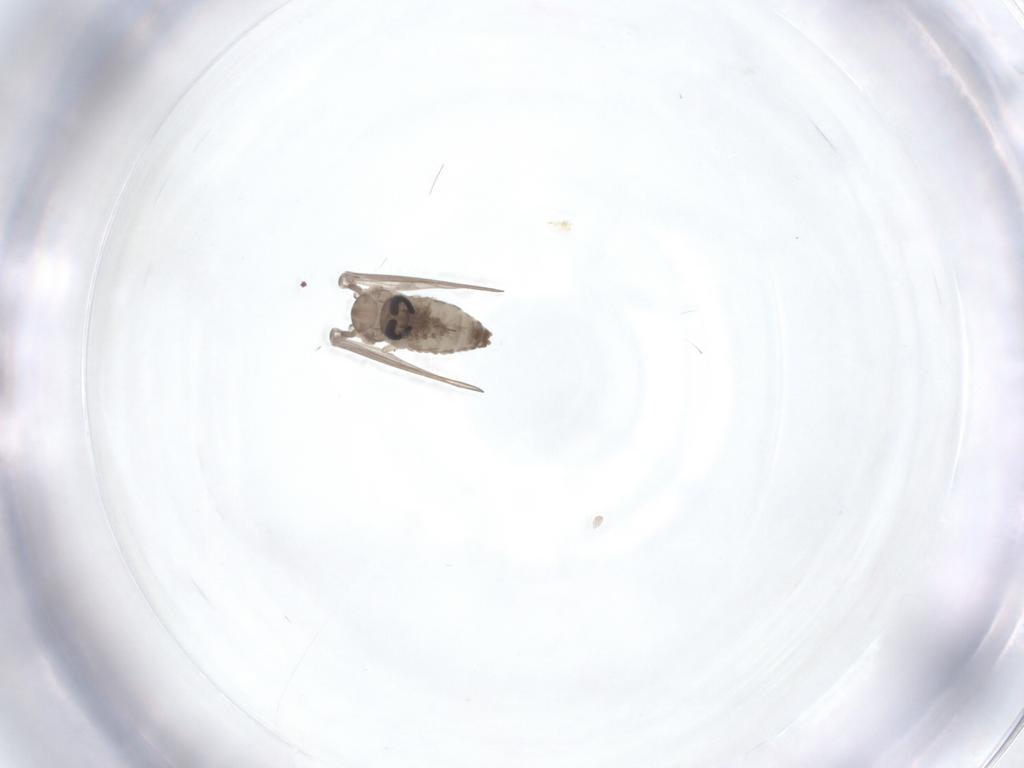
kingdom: Animalia
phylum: Arthropoda
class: Insecta
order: Diptera
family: Psychodidae
